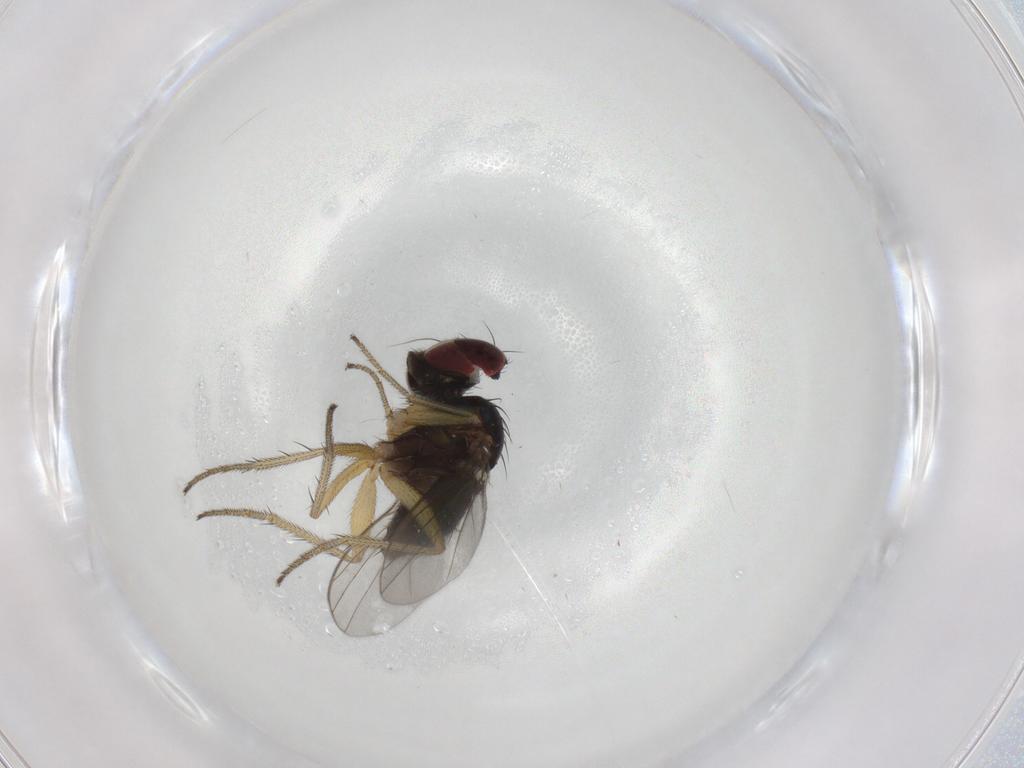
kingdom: Animalia
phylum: Arthropoda
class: Insecta
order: Diptera
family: Dolichopodidae
